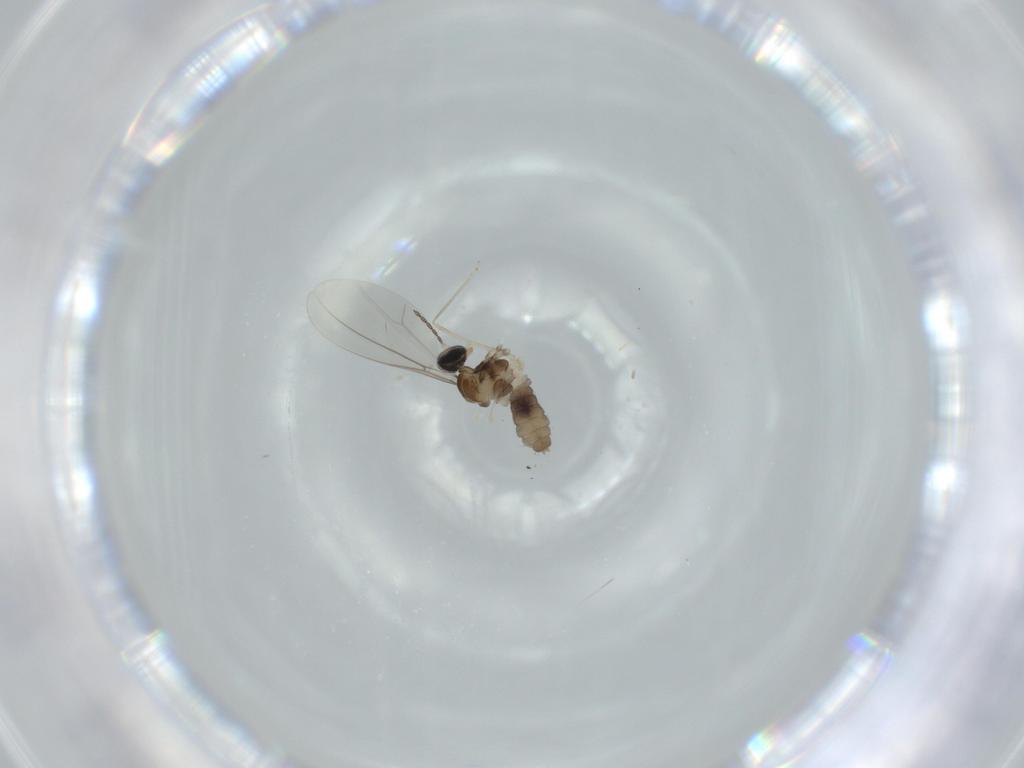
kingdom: Animalia
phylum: Arthropoda
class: Insecta
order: Diptera
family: Cecidomyiidae
